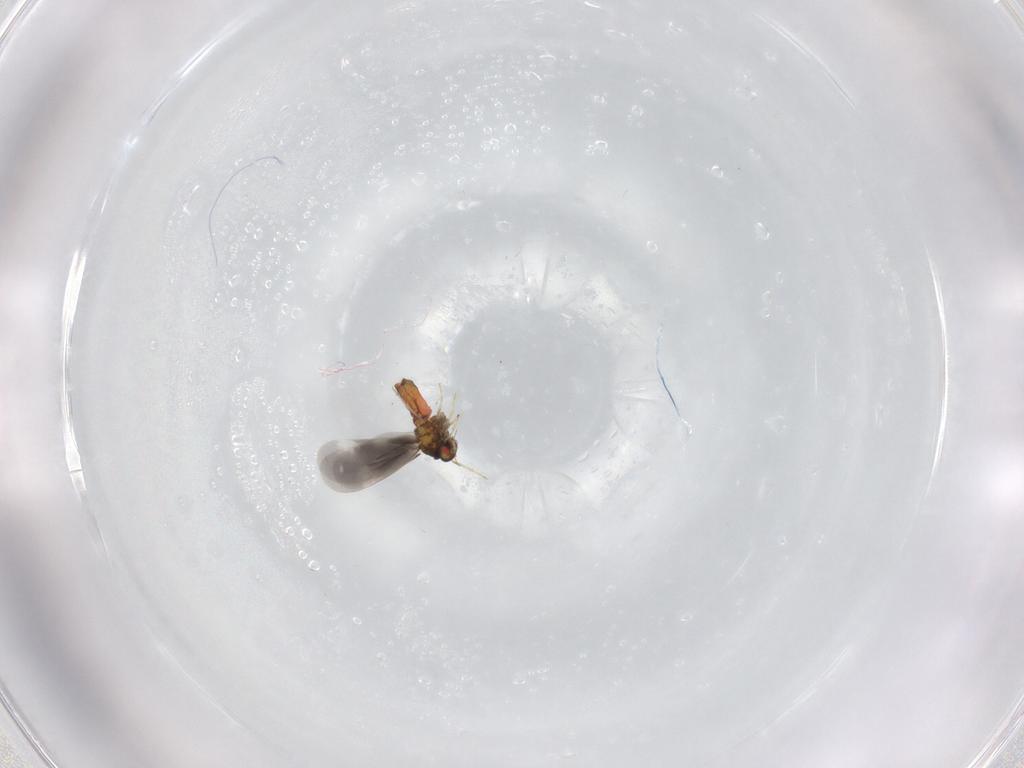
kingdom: Animalia
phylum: Arthropoda
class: Insecta
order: Hemiptera
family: Aleyrodidae
